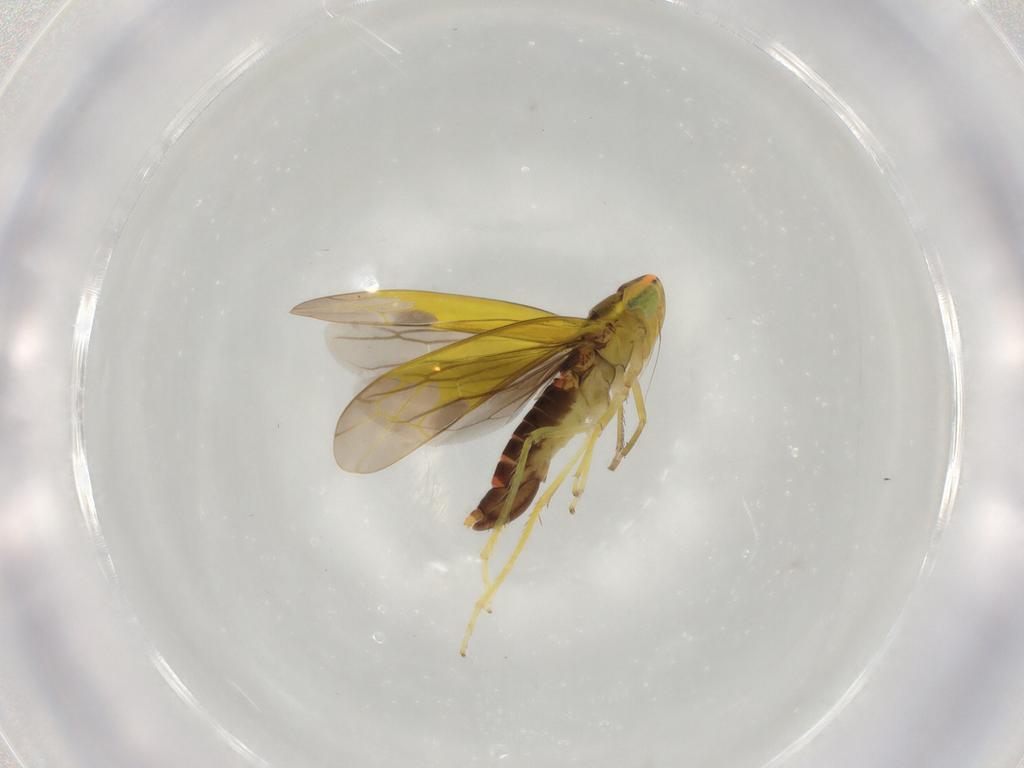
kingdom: Animalia
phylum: Arthropoda
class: Insecta
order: Hemiptera
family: Cicadellidae
